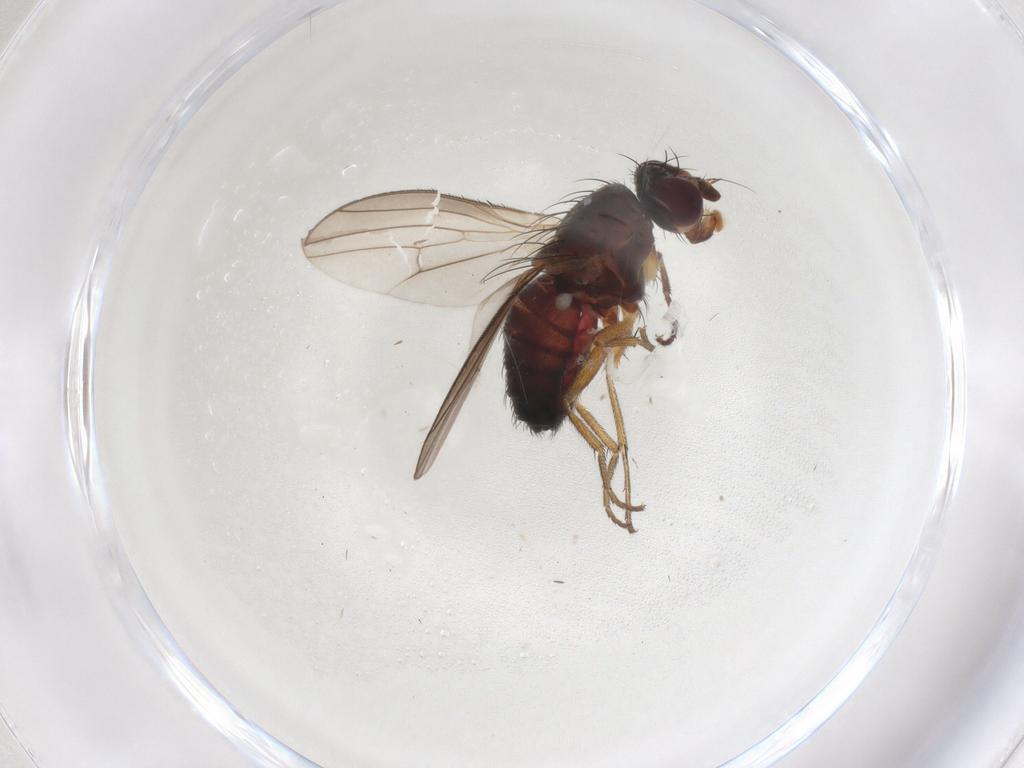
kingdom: Animalia
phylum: Arthropoda
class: Insecta
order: Diptera
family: Heleomyzidae
